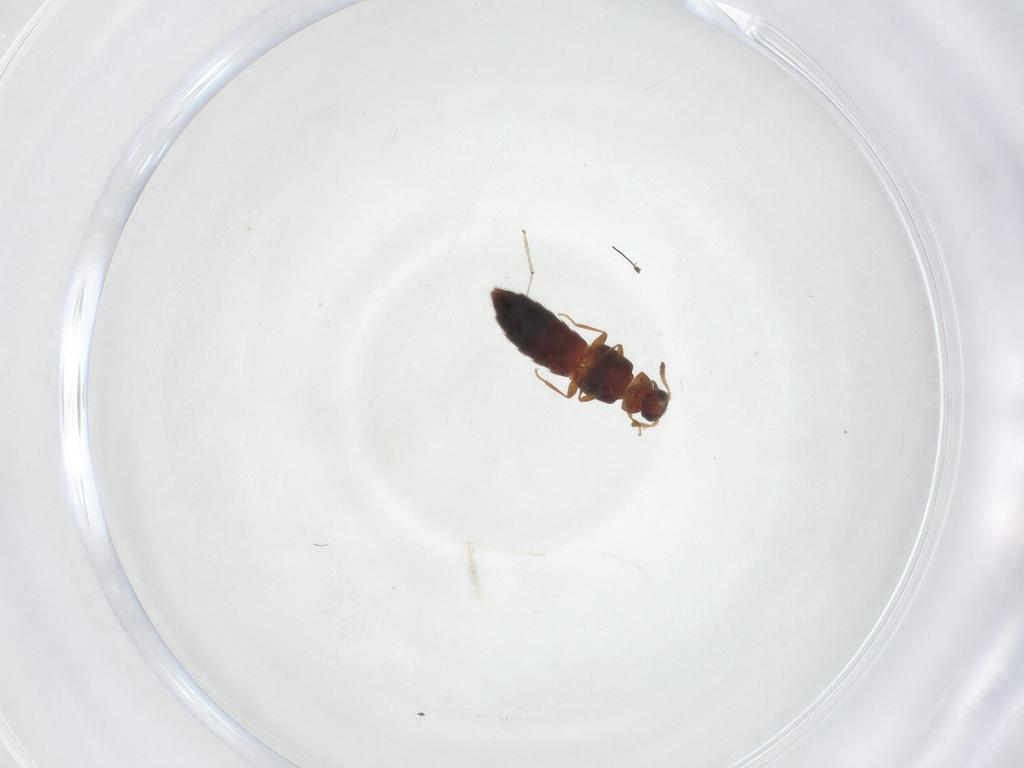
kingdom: Animalia
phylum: Arthropoda
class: Insecta
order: Coleoptera
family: Staphylinidae
